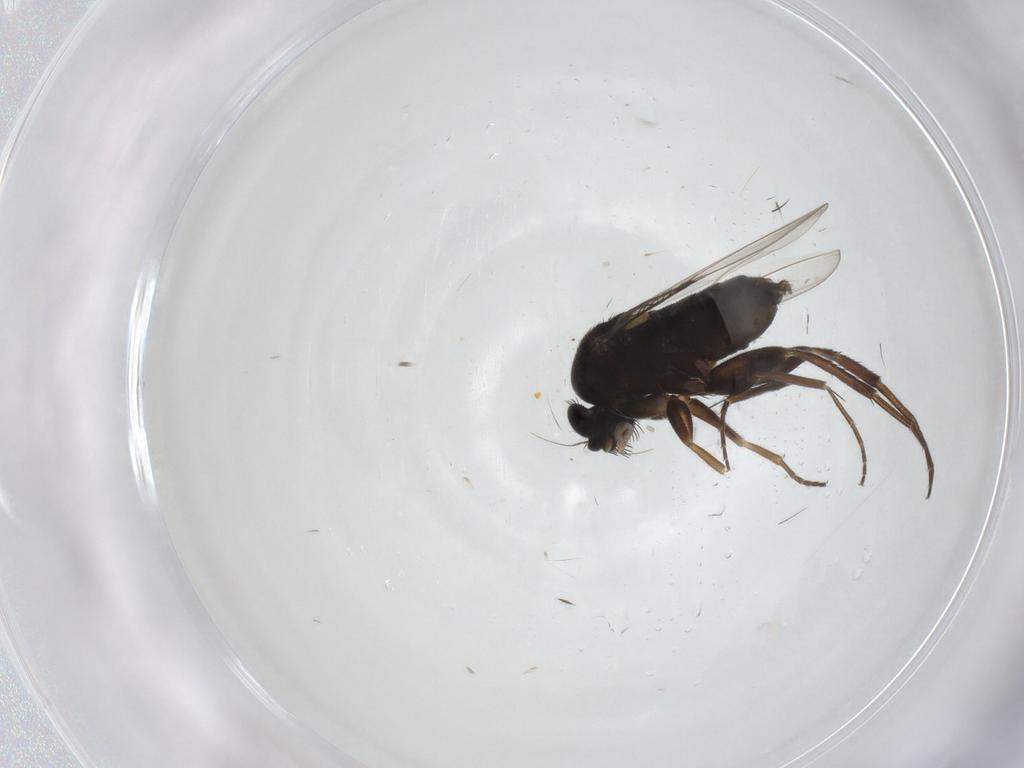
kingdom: Animalia
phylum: Arthropoda
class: Insecta
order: Diptera
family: Phoridae
